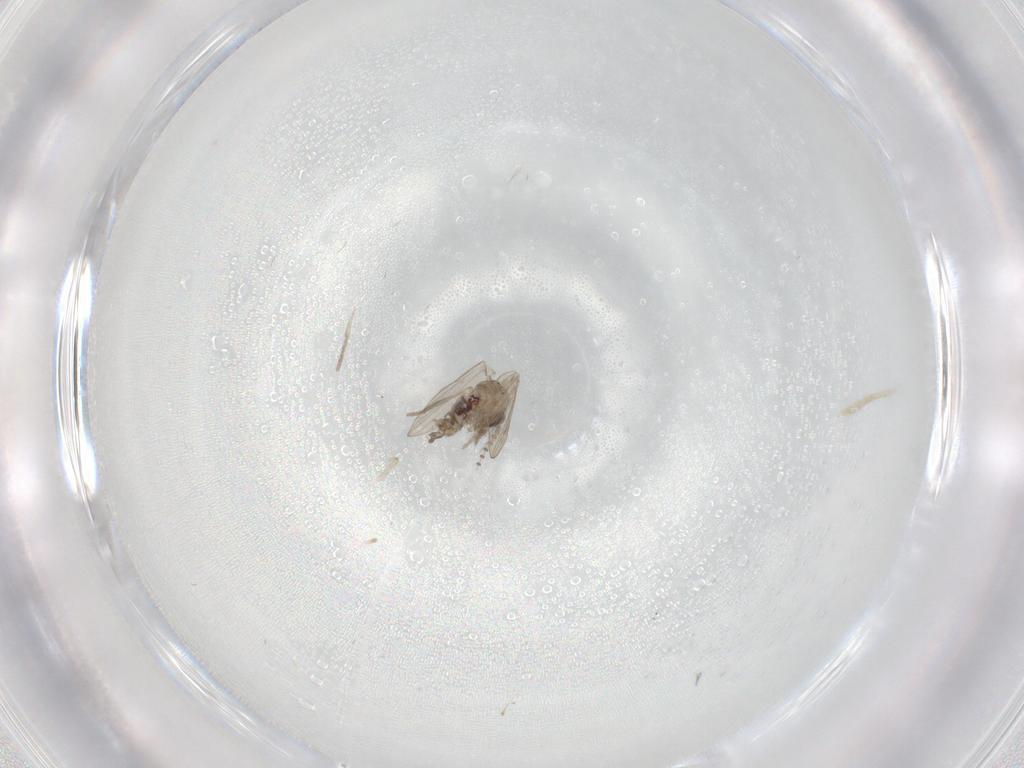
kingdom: Animalia
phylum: Arthropoda
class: Insecta
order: Diptera
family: Psychodidae
